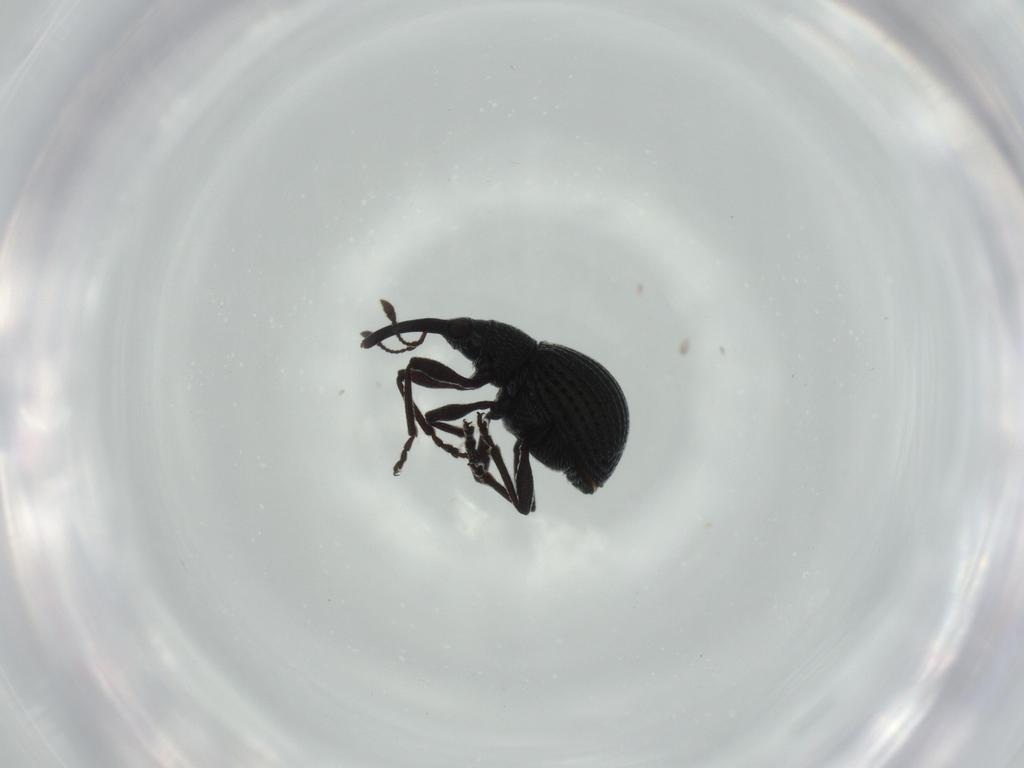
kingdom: Animalia
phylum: Arthropoda
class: Insecta
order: Coleoptera
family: Brentidae
